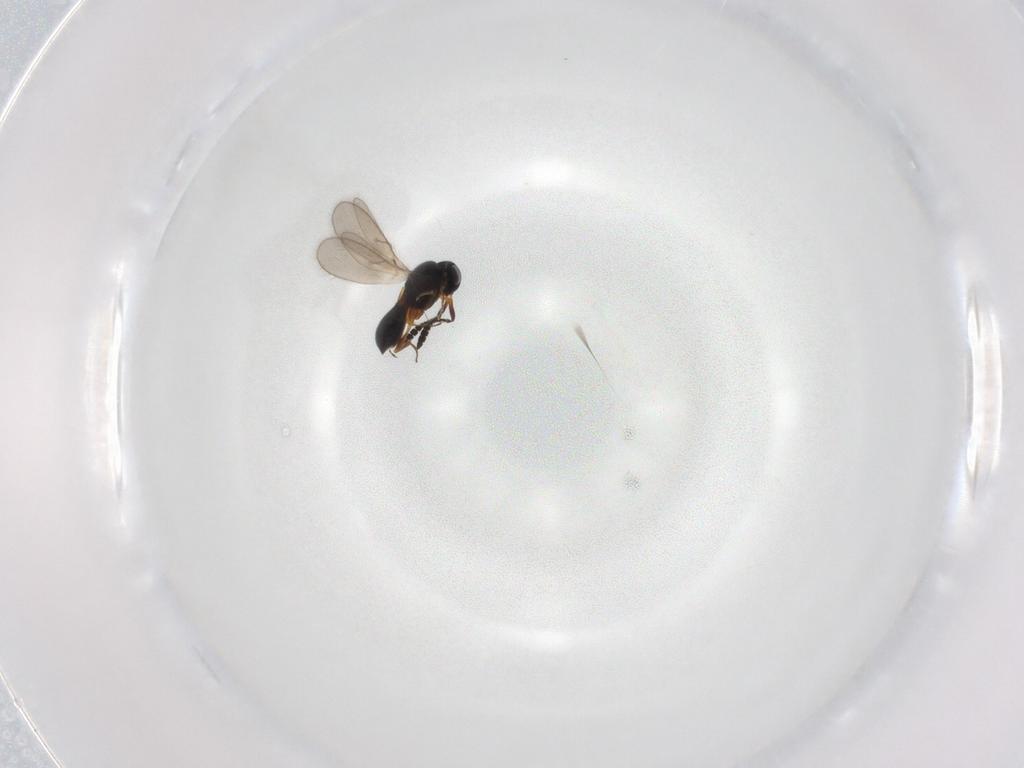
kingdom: Animalia
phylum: Arthropoda
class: Insecta
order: Hymenoptera
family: Scelionidae
